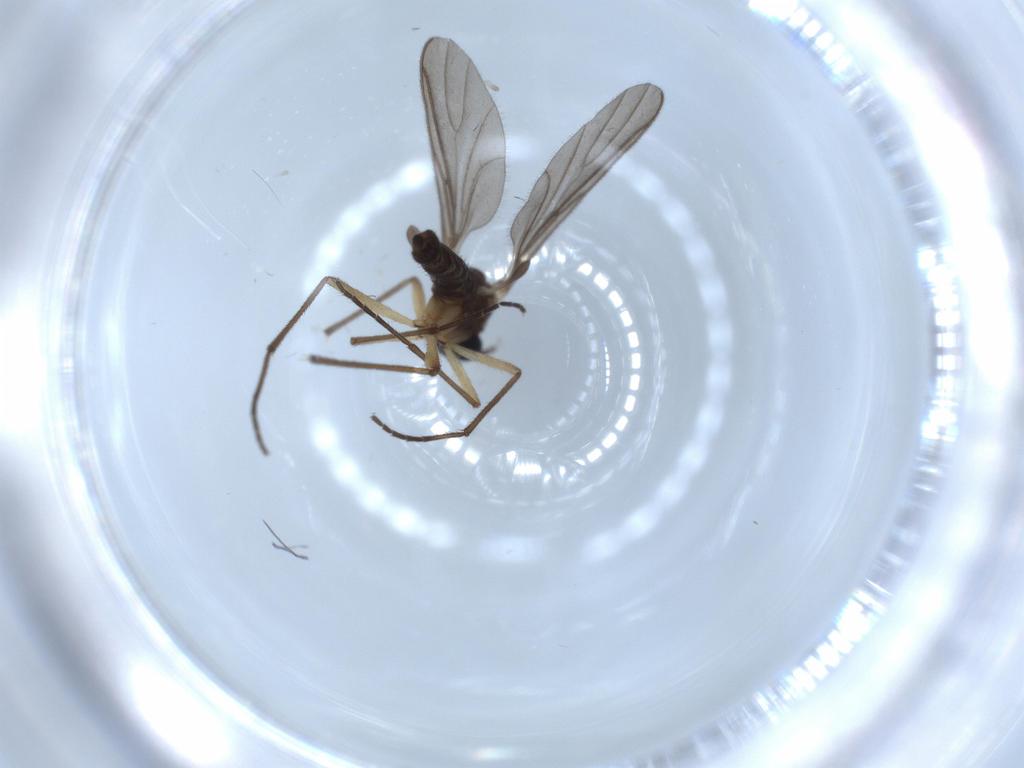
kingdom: Animalia
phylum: Arthropoda
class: Insecta
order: Diptera
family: Sciaridae
